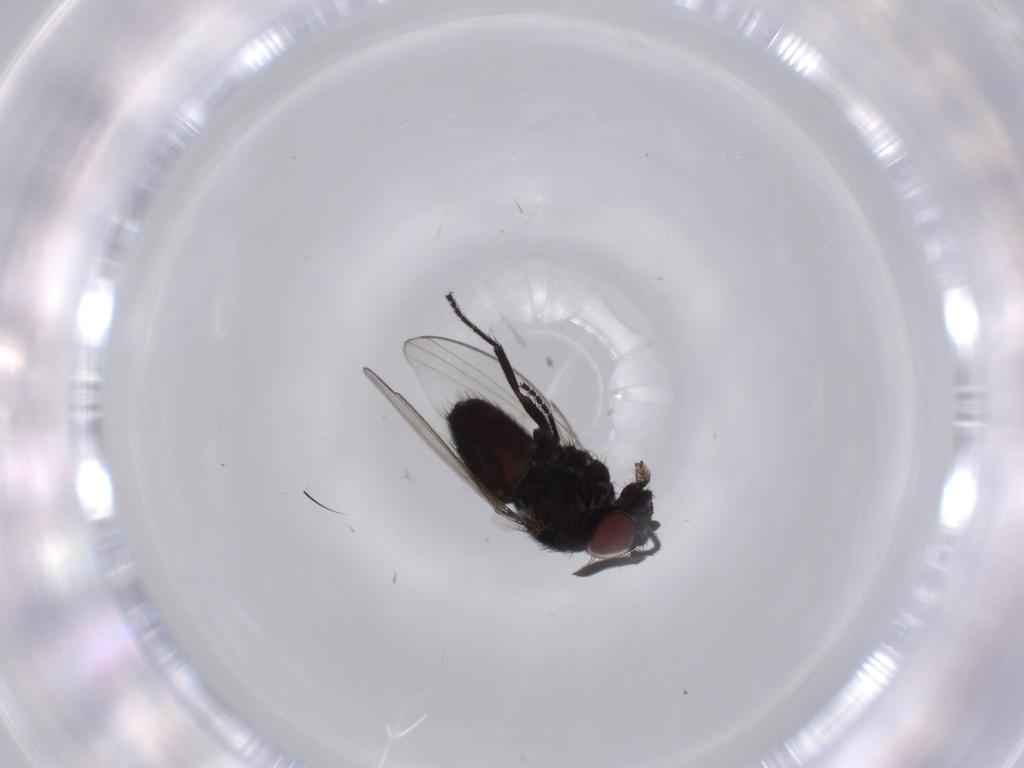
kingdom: Animalia
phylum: Arthropoda
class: Insecta
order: Diptera
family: Milichiidae
